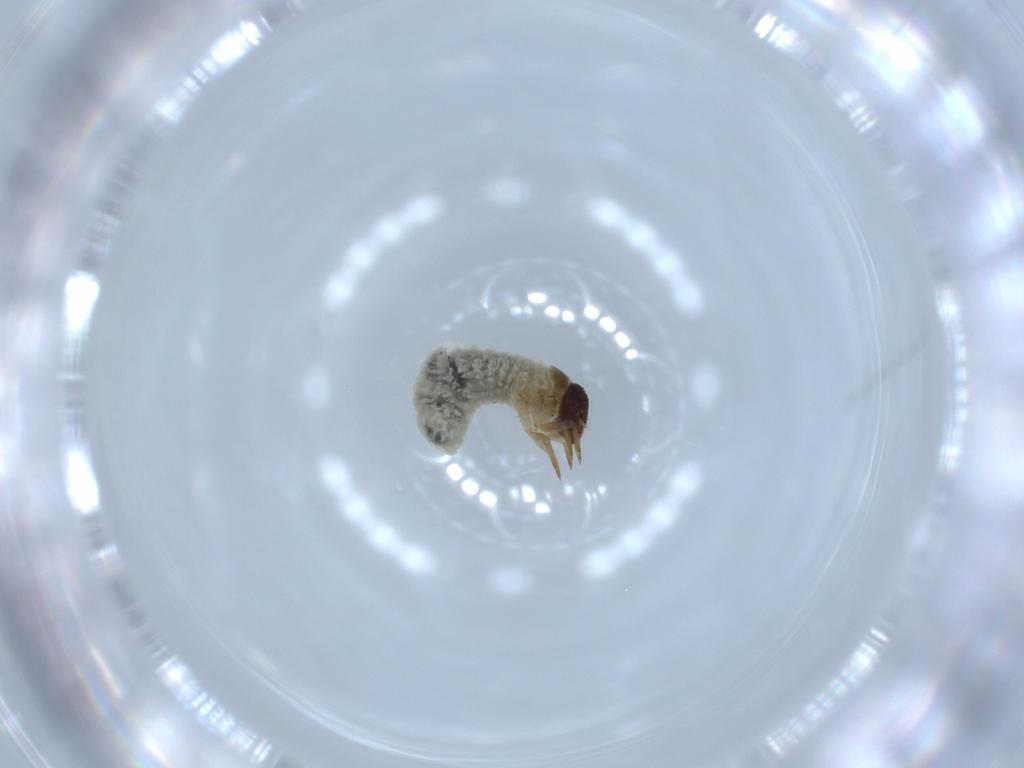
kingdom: Animalia
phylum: Arthropoda
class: Insecta
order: Coleoptera
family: Chrysomelidae
